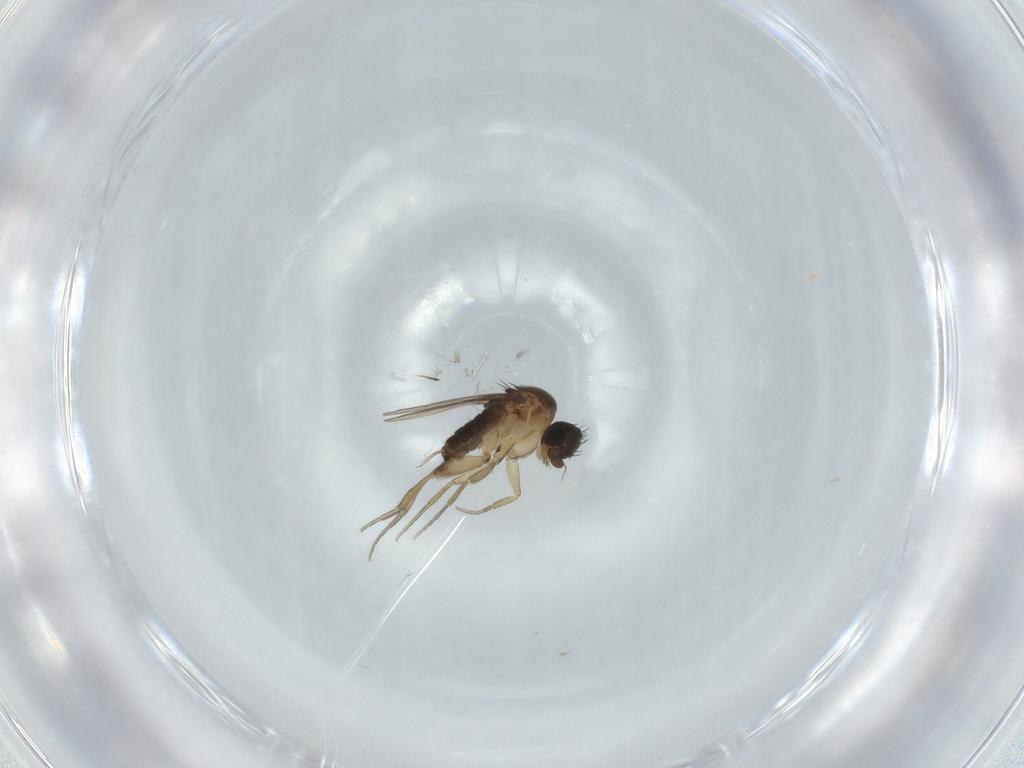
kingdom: Animalia
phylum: Arthropoda
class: Insecta
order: Diptera
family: Phoridae
